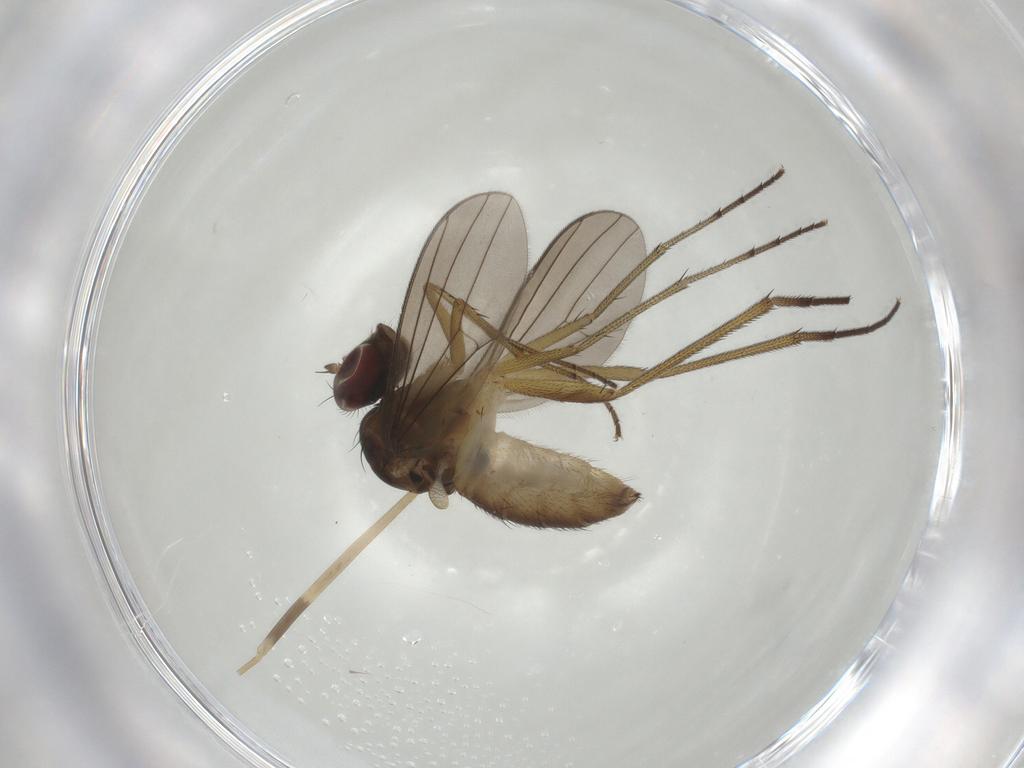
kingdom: Animalia
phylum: Arthropoda
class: Insecta
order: Diptera
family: Dolichopodidae
